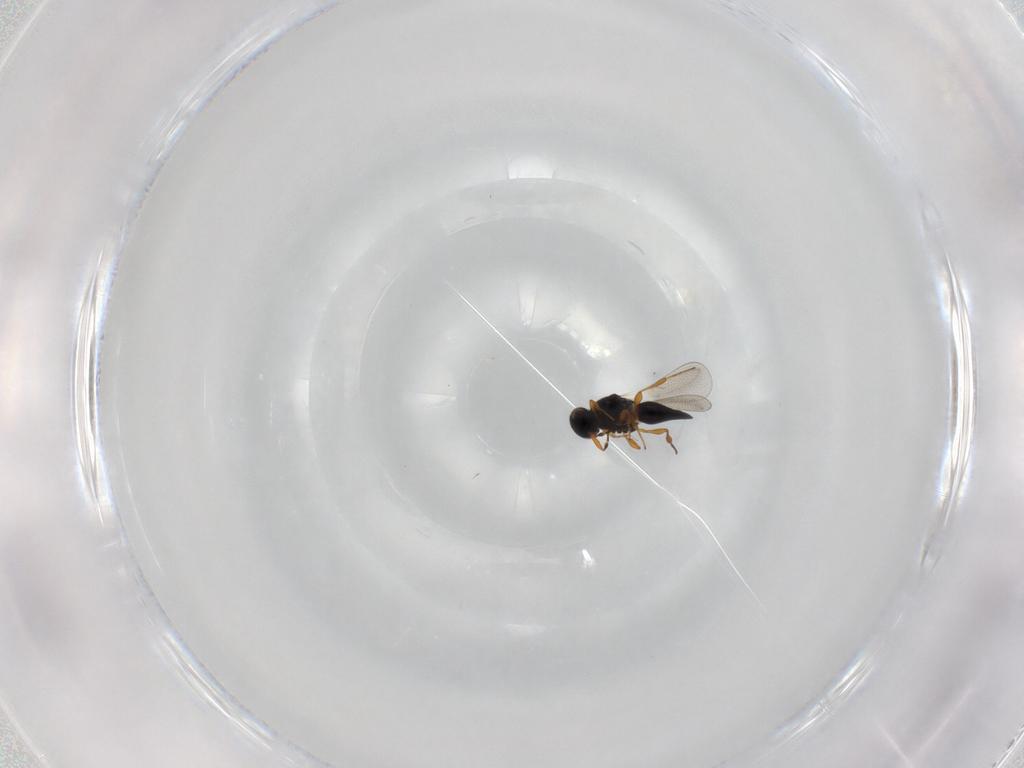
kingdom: Animalia
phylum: Arthropoda
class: Insecta
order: Hymenoptera
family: Platygastridae
